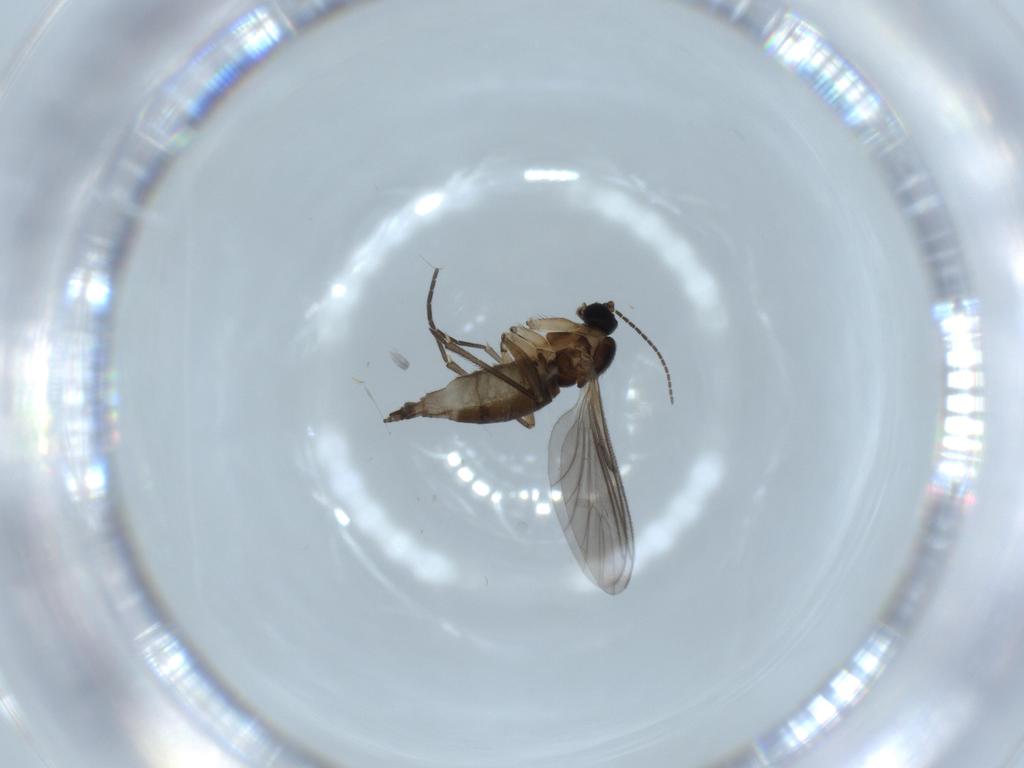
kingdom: Animalia
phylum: Arthropoda
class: Insecta
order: Diptera
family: Sciaridae
